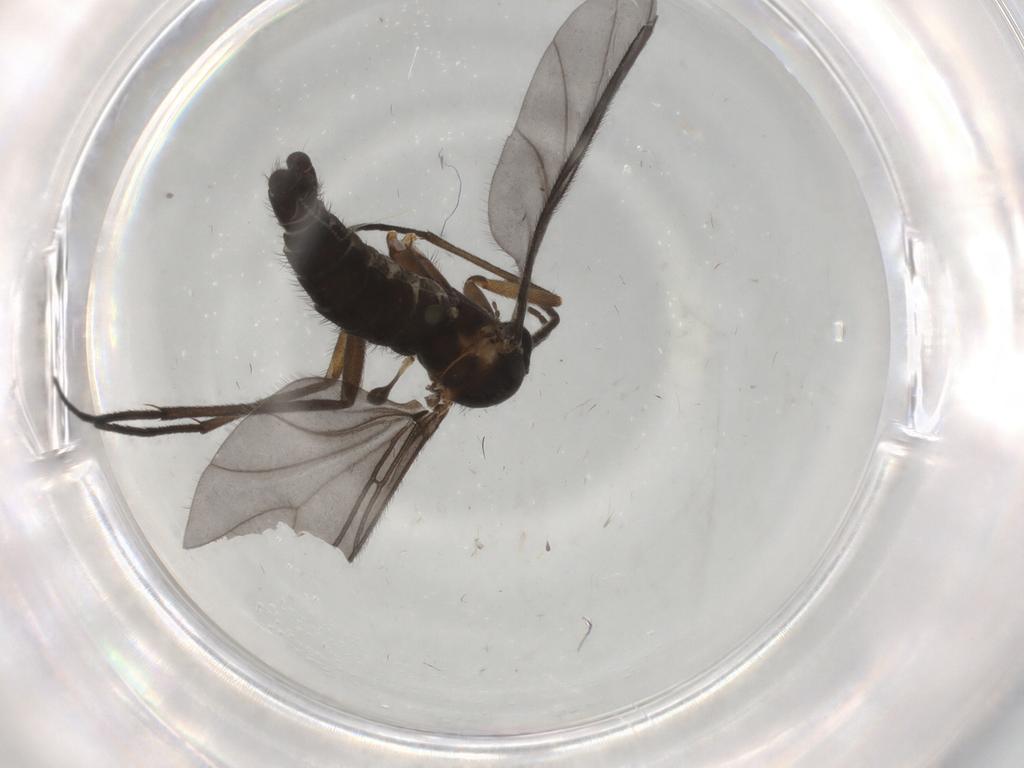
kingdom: Animalia
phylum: Arthropoda
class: Insecta
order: Diptera
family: Sciaridae
